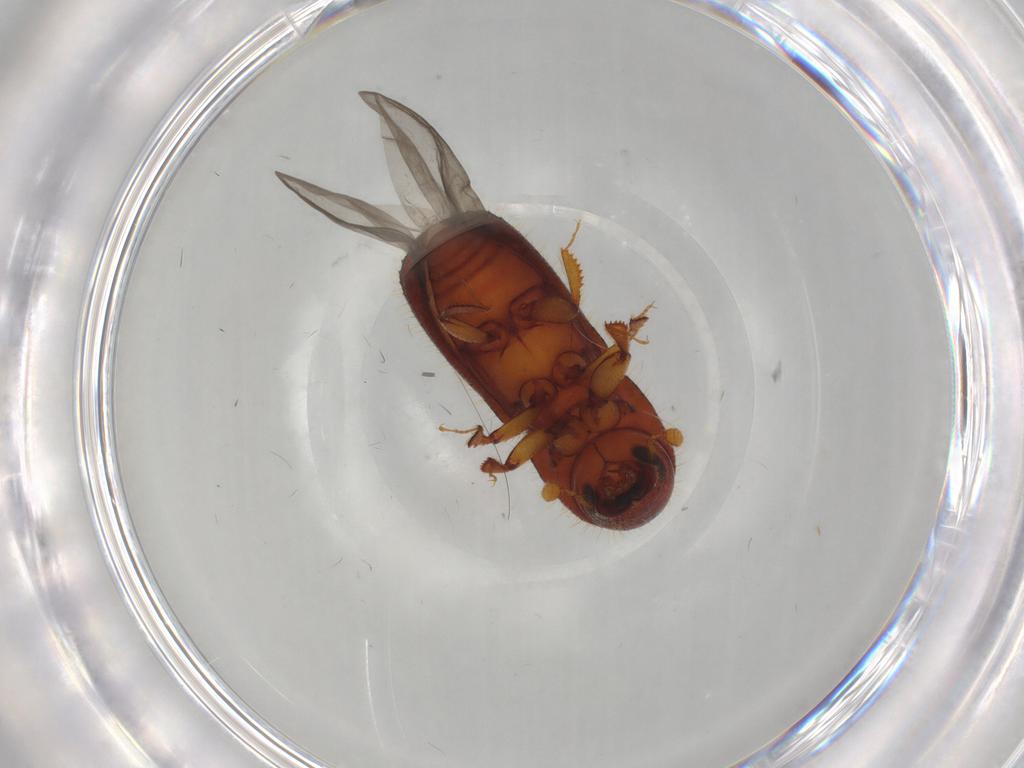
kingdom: Animalia
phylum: Arthropoda
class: Insecta
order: Coleoptera
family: Curculionidae
